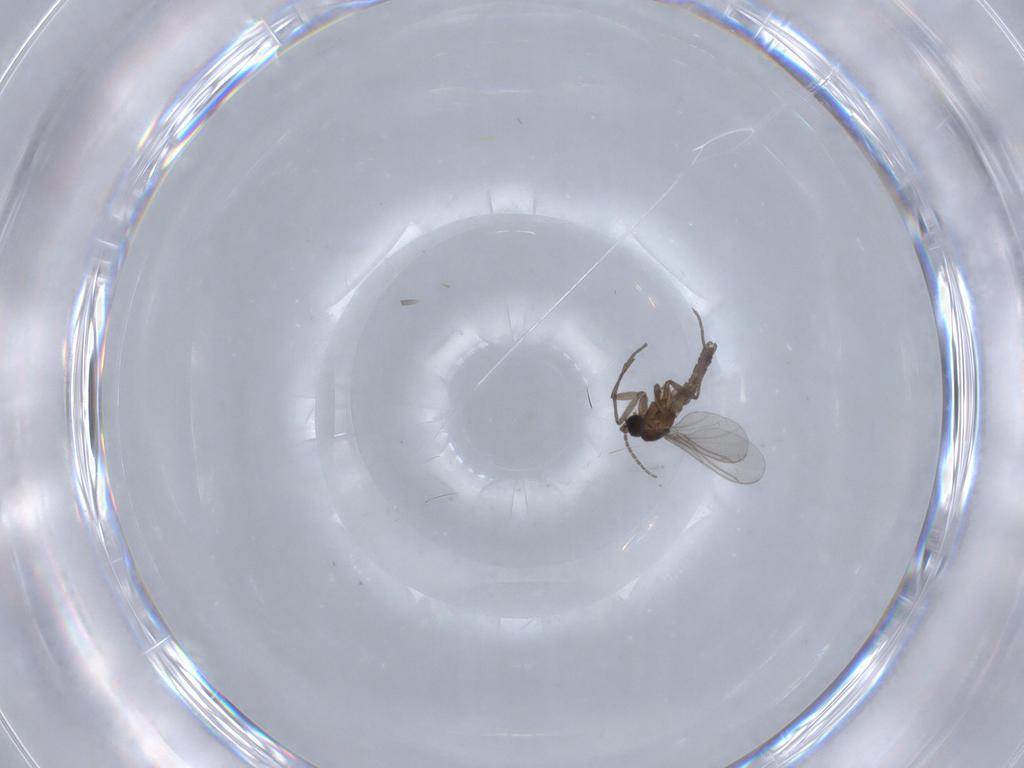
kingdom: Animalia
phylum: Arthropoda
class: Insecta
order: Diptera
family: Sciaridae
